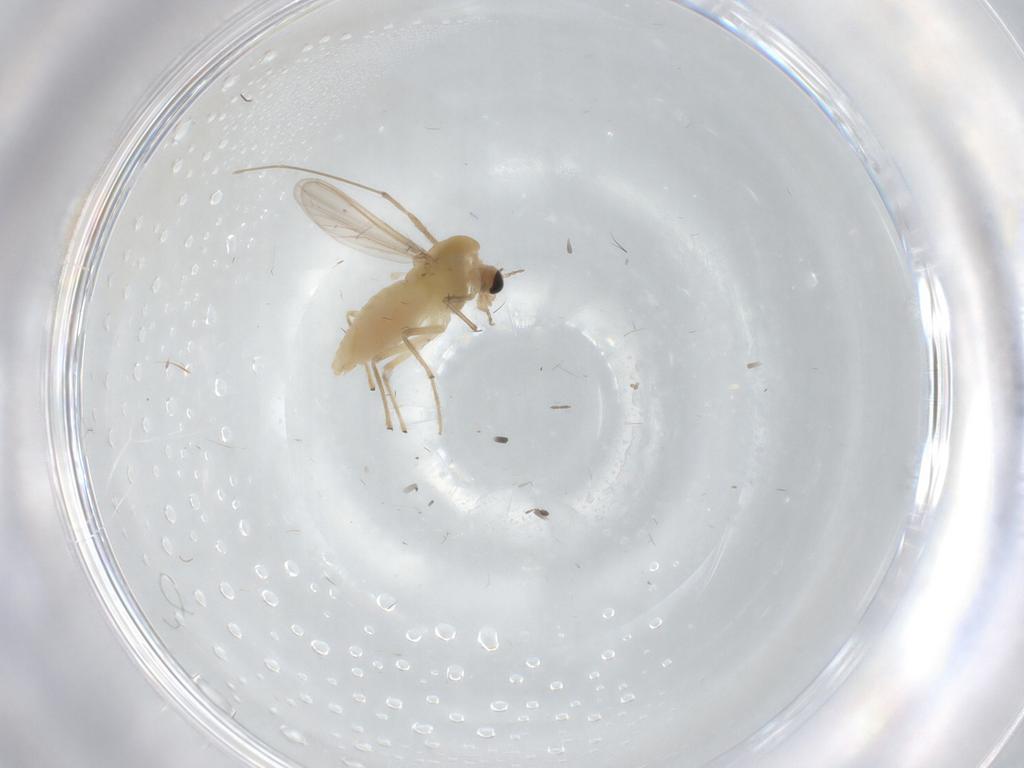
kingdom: Animalia
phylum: Arthropoda
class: Insecta
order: Diptera
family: Chironomidae
